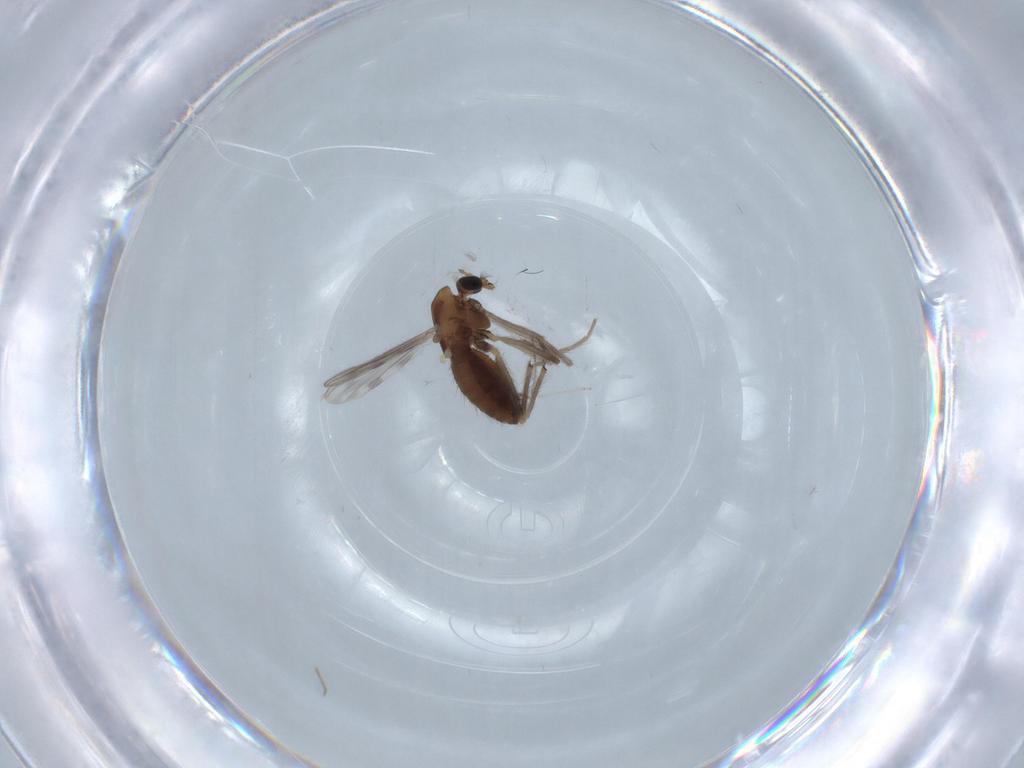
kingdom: Animalia
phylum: Arthropoda
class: Insecta
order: Diptera
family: Chironomidae
